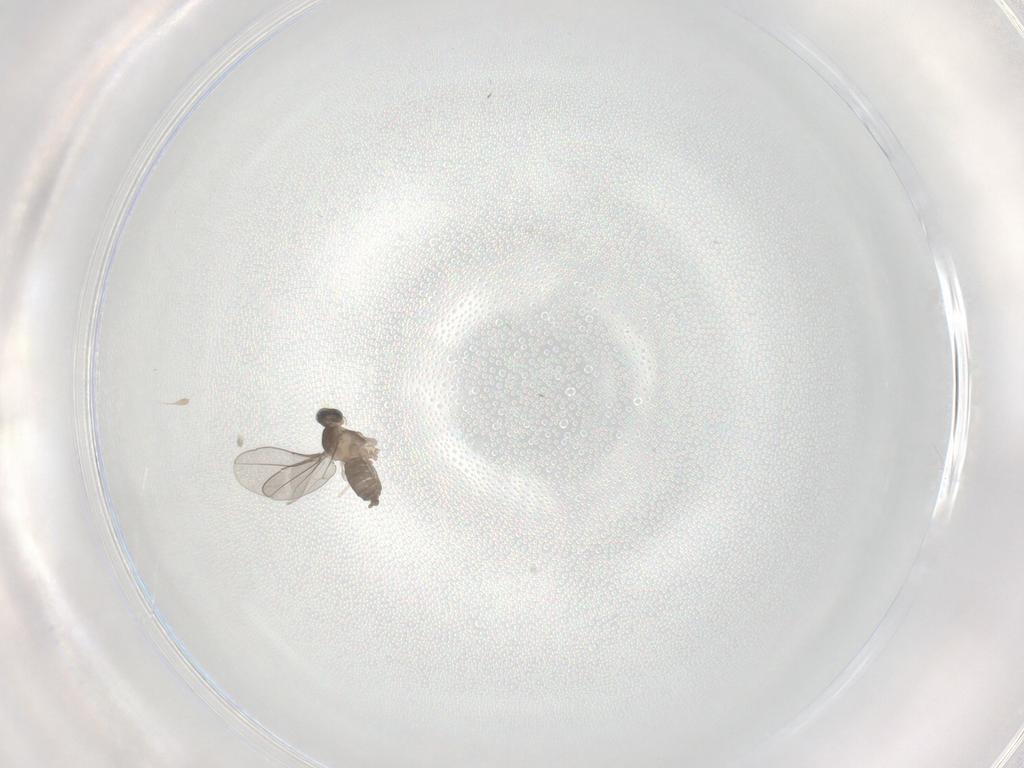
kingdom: Animalia
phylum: Arthropoda
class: Insecta
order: Diptera
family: Cecidomyiidae
